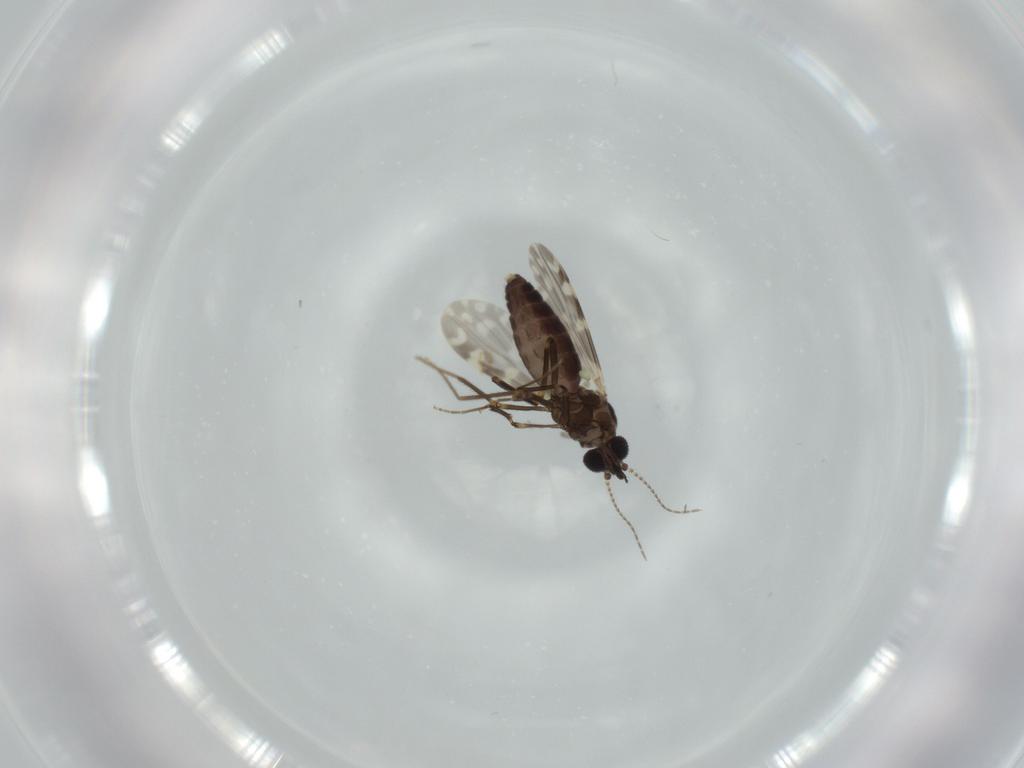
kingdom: Animalia
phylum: Arthropoda
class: Insecta
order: Diptera
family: Ceratopogonidae
